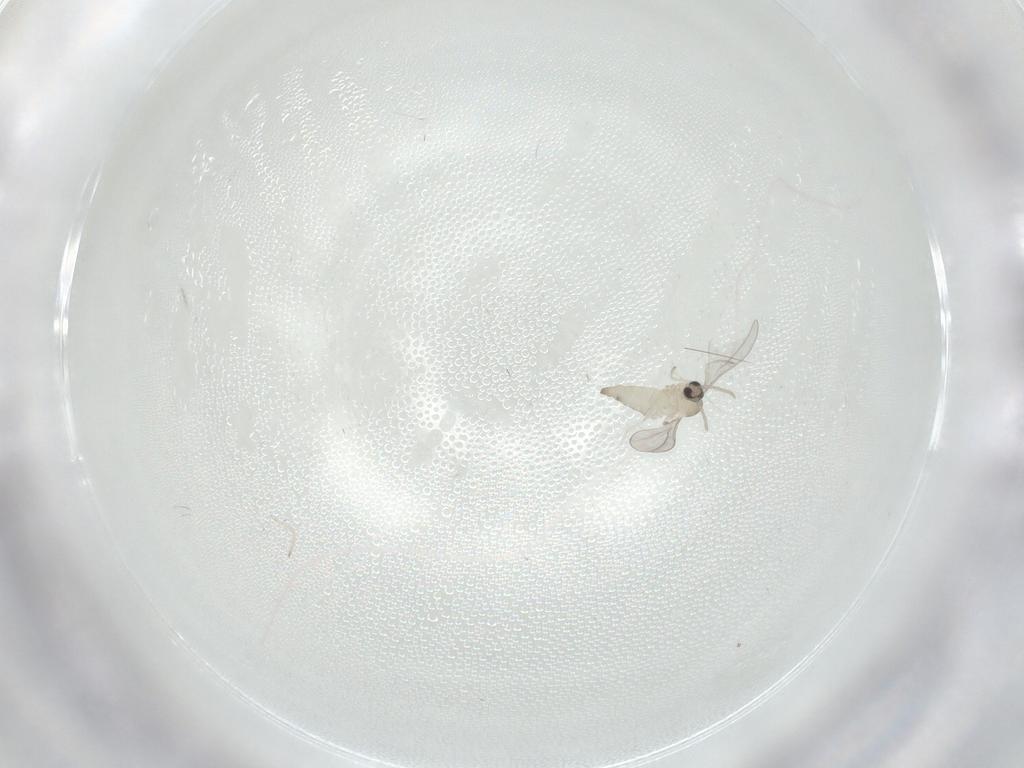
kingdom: Animalia
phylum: Arthropoda
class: Insecta
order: Diptera
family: Cecidomyiidae
